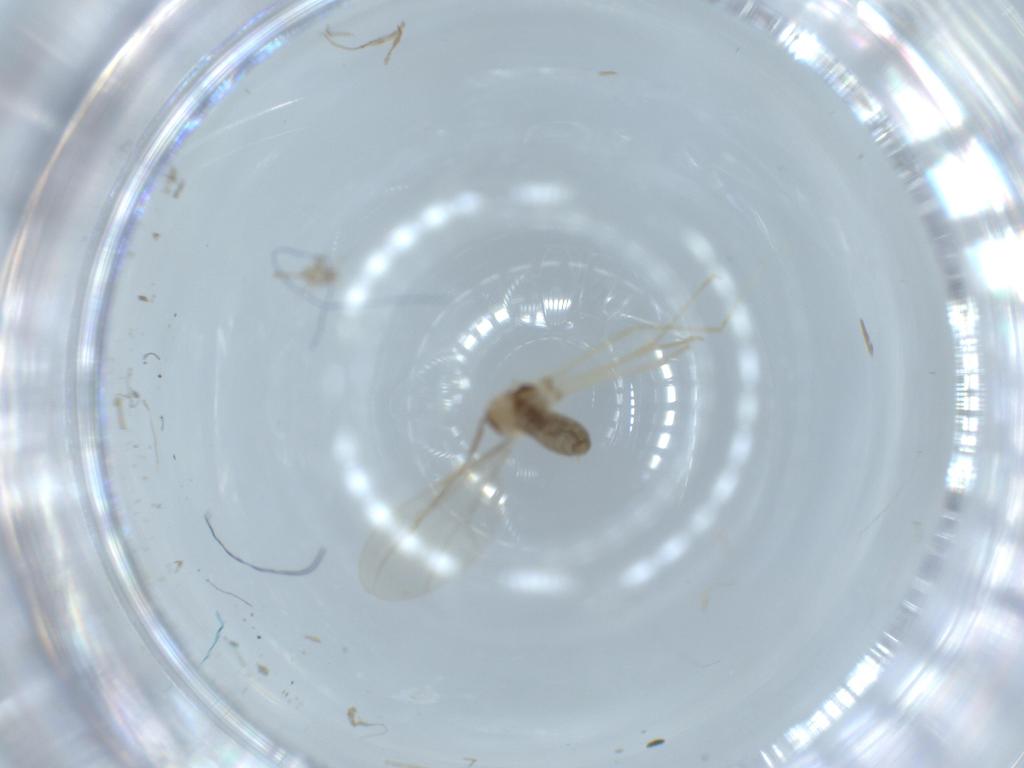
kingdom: Animalia
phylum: Arthropoda
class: Insecta
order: Diptera
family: Cecidomyiidae
